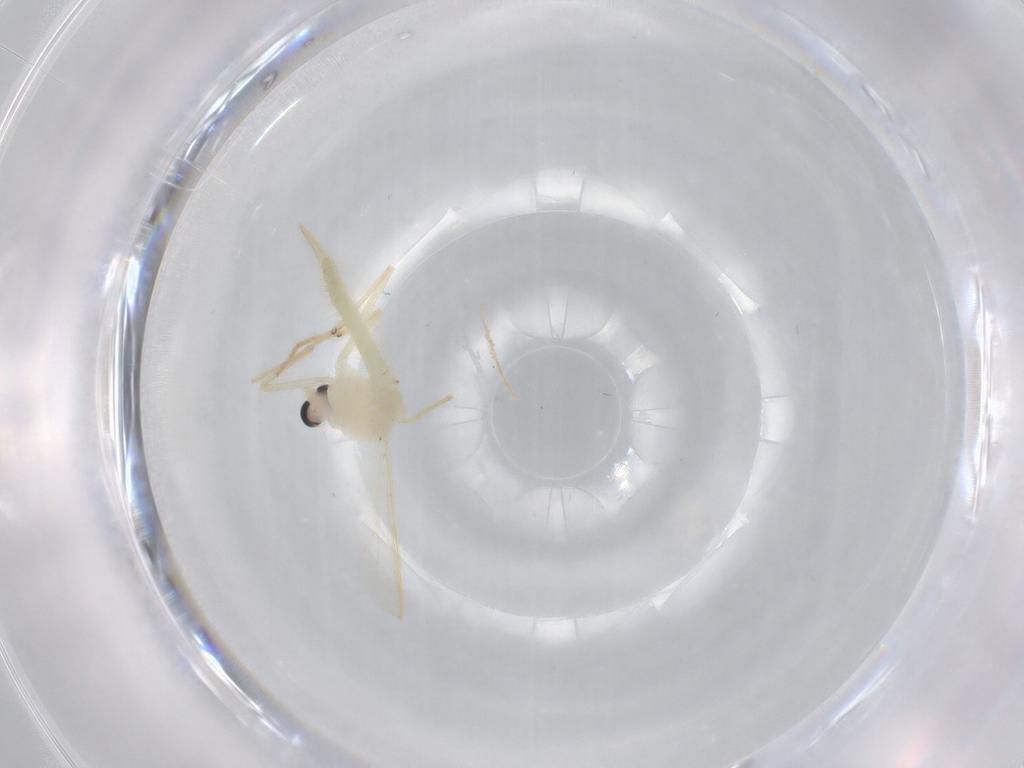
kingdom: Animalia
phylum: Arthropoda
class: Insecta
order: Diptera
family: Chironomidae
